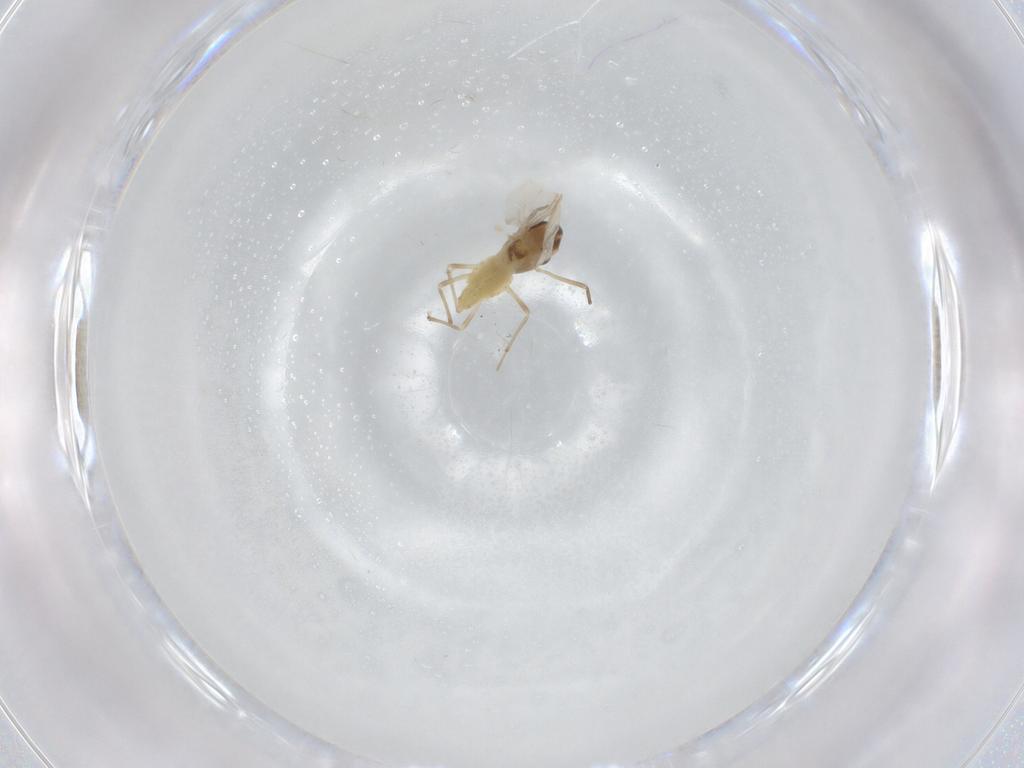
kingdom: Animalia
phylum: Arthropoda
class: Insecta
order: Diptera
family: Chironomidae
